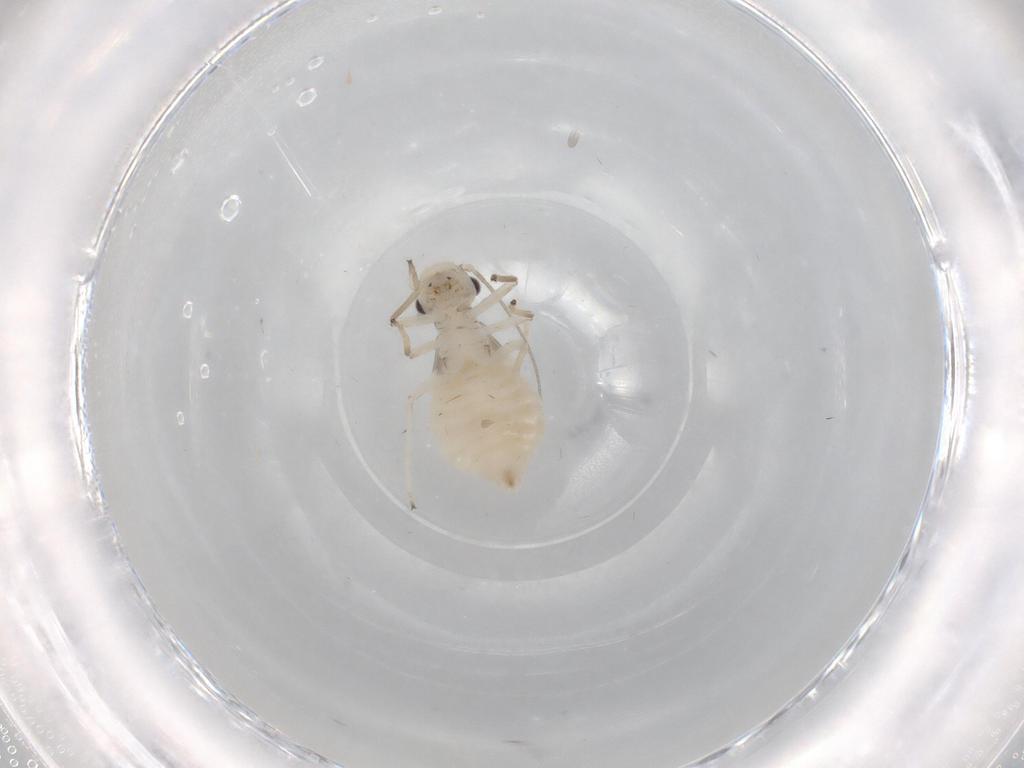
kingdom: Animalia
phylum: Arthropoda
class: Insecta
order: Psocodea
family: Caeciliusidae
